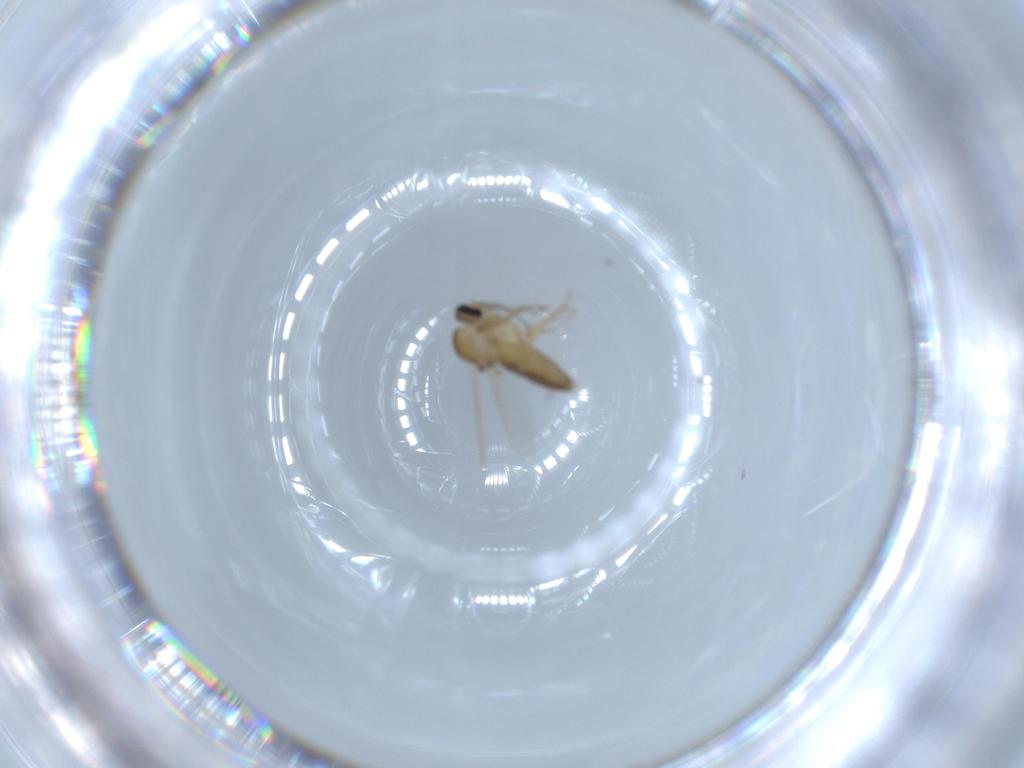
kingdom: Animalia
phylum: Arthropoda
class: Insecta
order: Diptera
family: Ceratopogonidae
